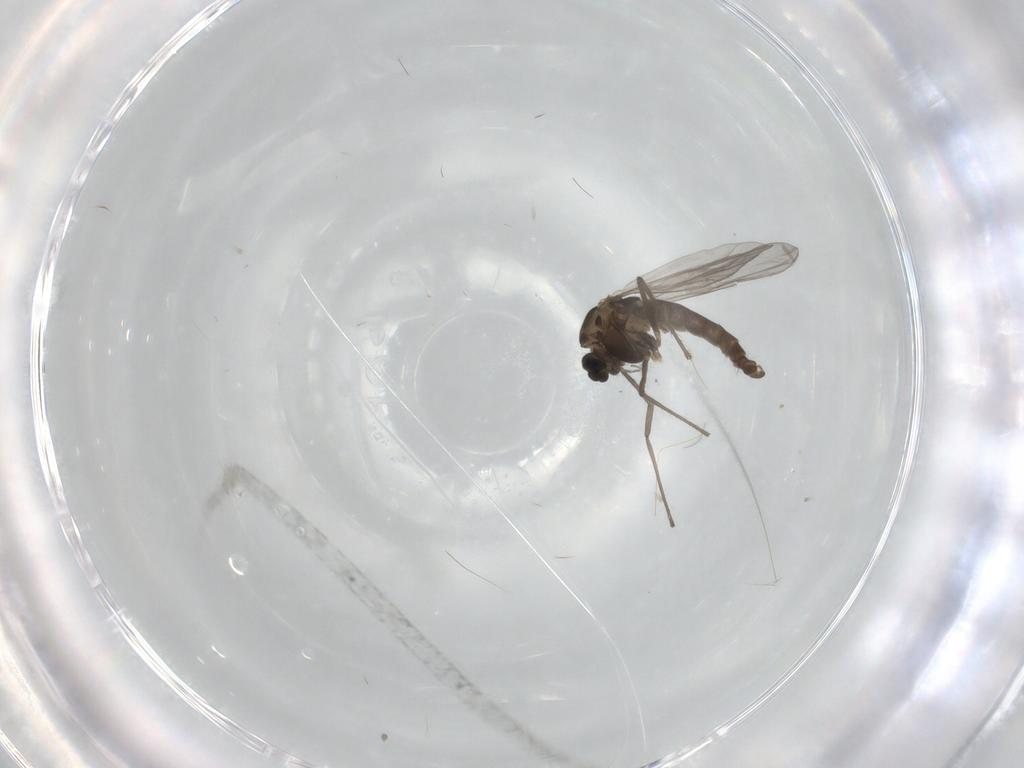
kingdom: Animalia
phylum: Arthropoda
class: Insecta
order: Diptera
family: Chironomidae
